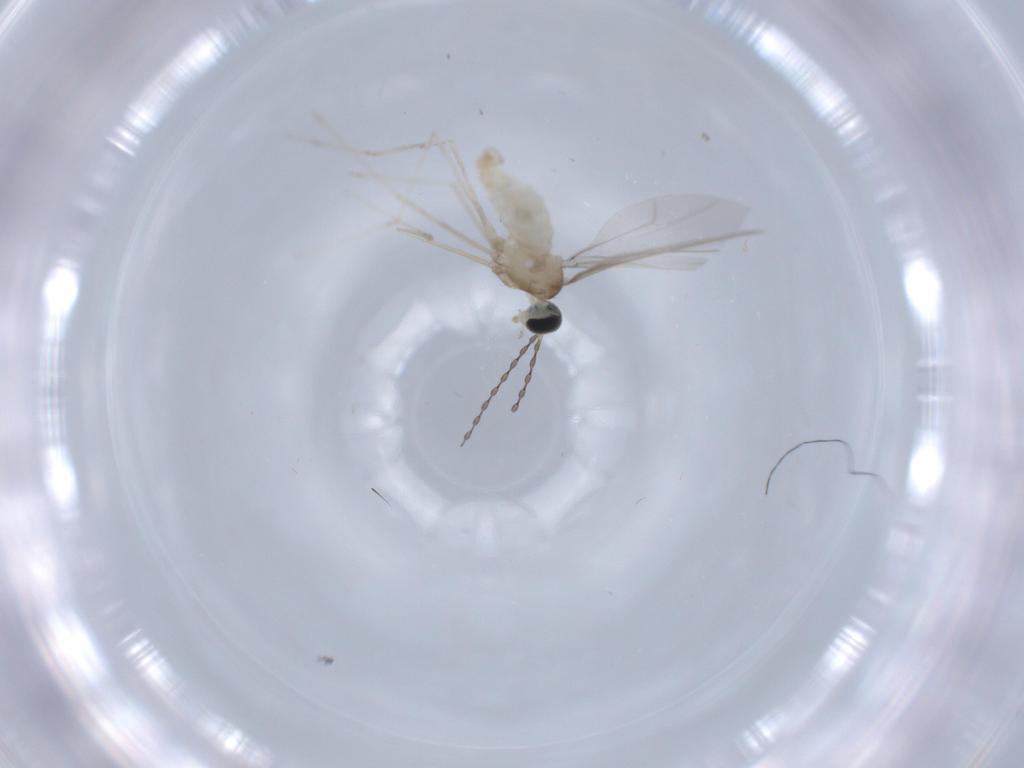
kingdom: Animalia
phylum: Arthropoda
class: Insecta
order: Diptera
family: Cecidomyiidae
